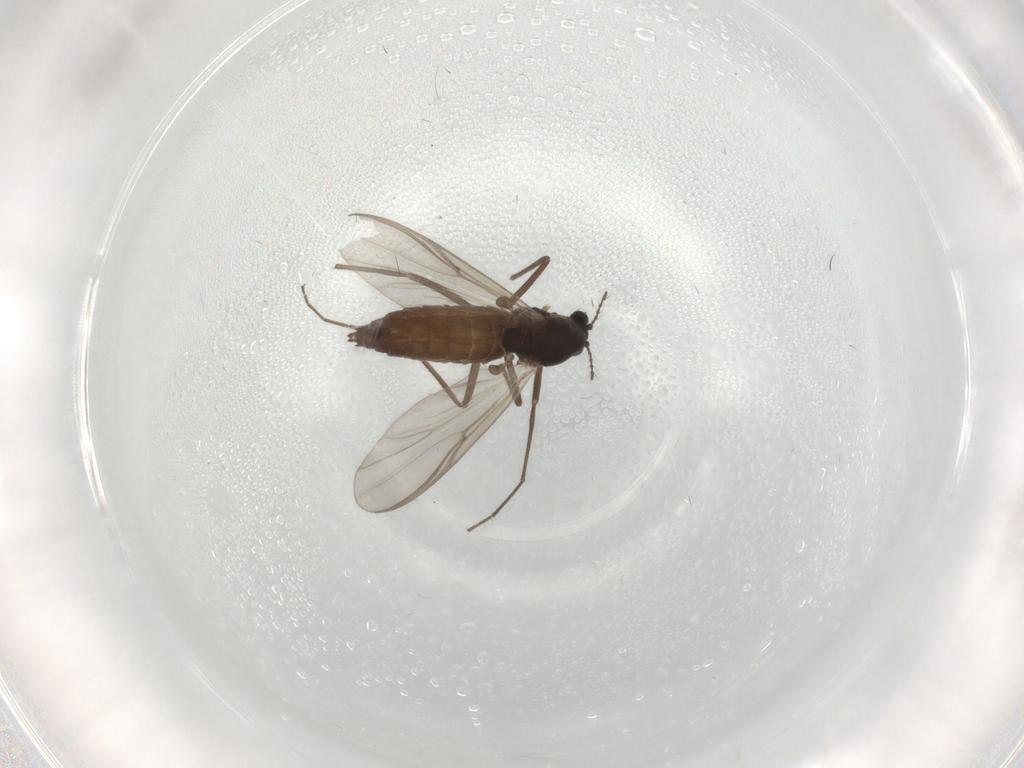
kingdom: Animalia
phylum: Arthropoda
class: Insecta
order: Diptera
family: Chironomidae
